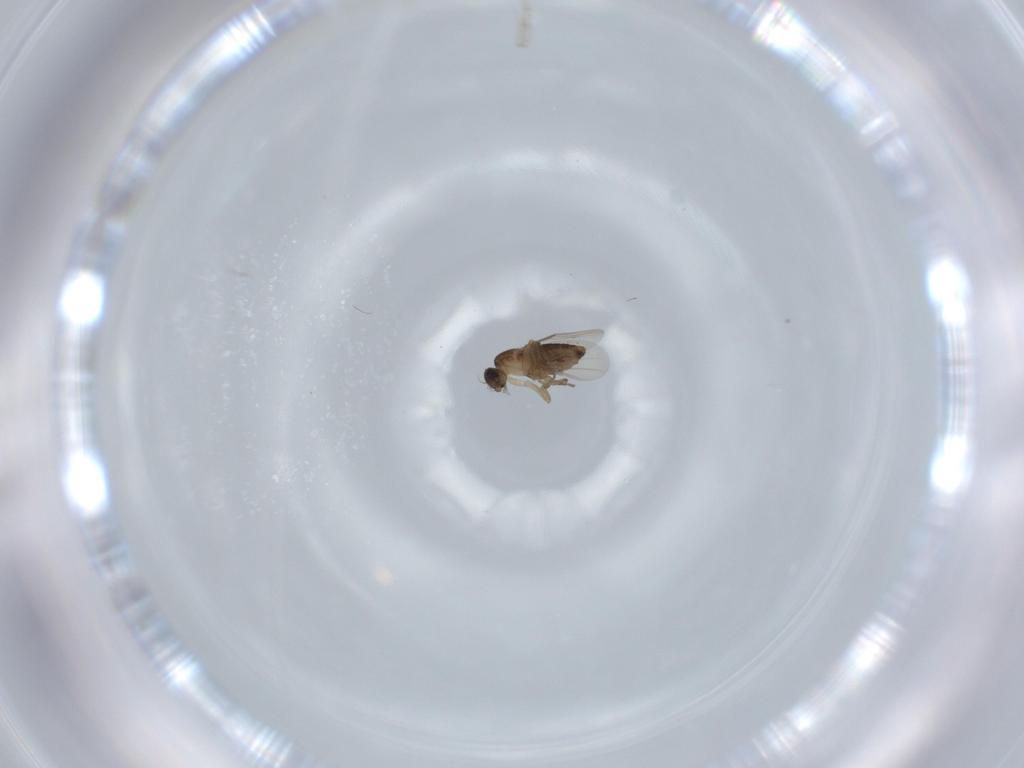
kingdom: Animalia
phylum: Arthropoda
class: Insecta
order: Diptera
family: Phoridae
